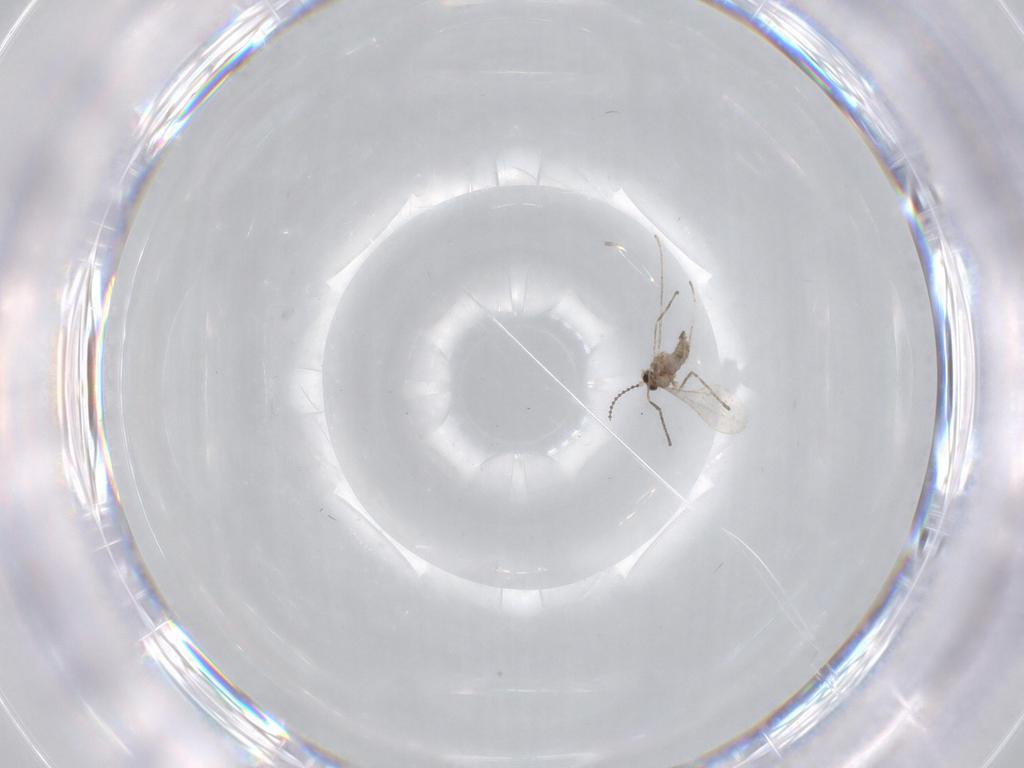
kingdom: Animalia
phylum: Arthropoda
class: Insecta
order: Diptera
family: Cecidomyiidae
